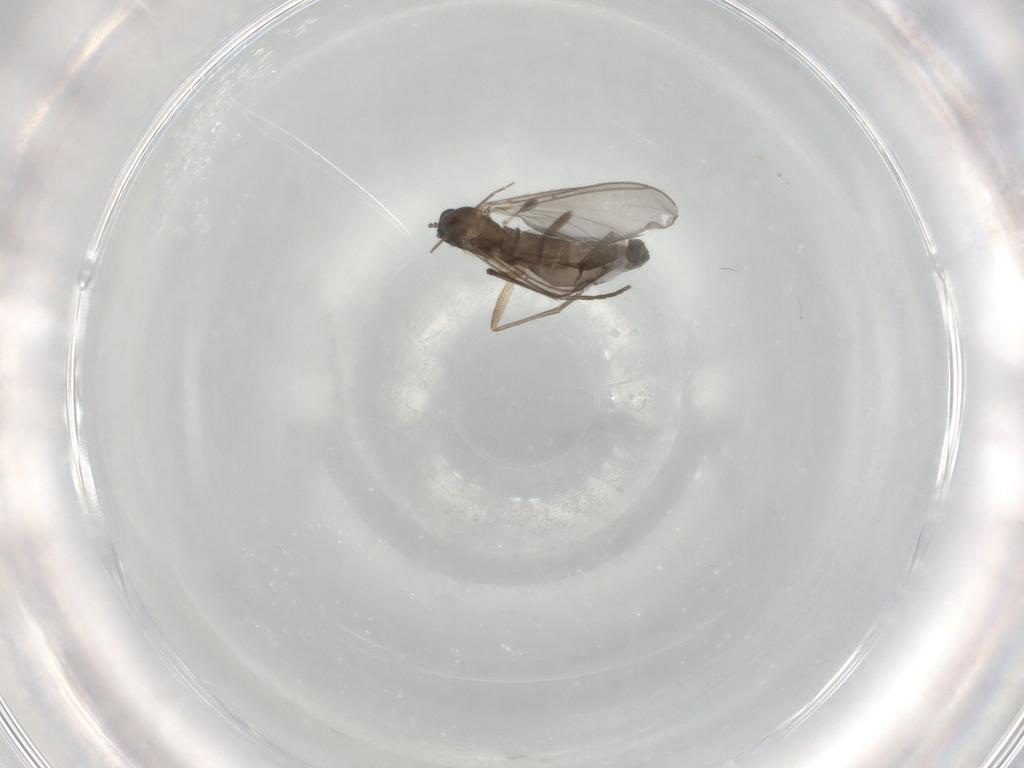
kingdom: Animalia
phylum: Arthropoda
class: Insecta
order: Diptera
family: Sciaridae
